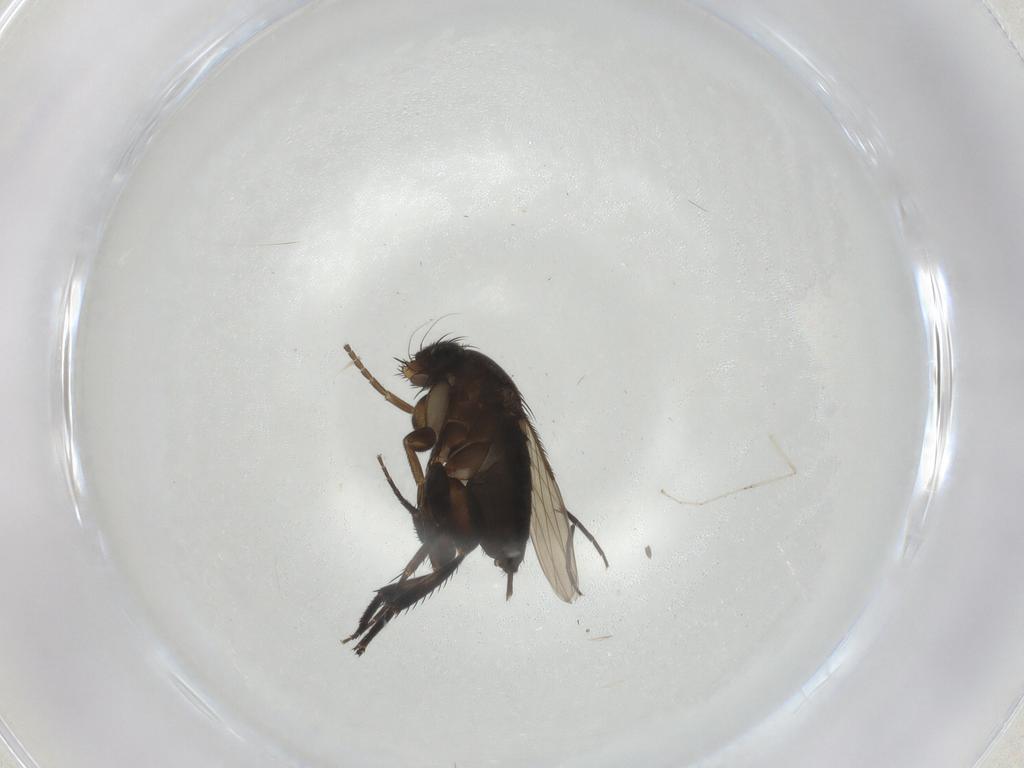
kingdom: Animalia
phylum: Arthropoda
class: Insecta
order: Diptera
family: Phoridae
